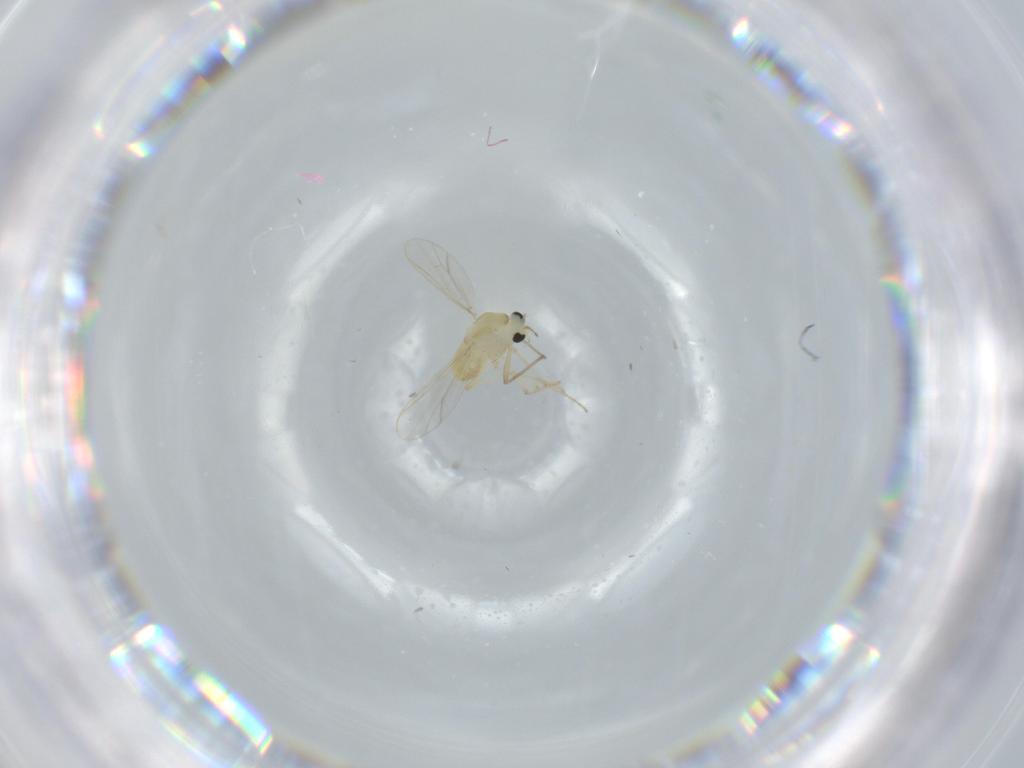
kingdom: Animalia
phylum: Arthropoda
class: Insecta
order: Diptera
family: Chironomidae
